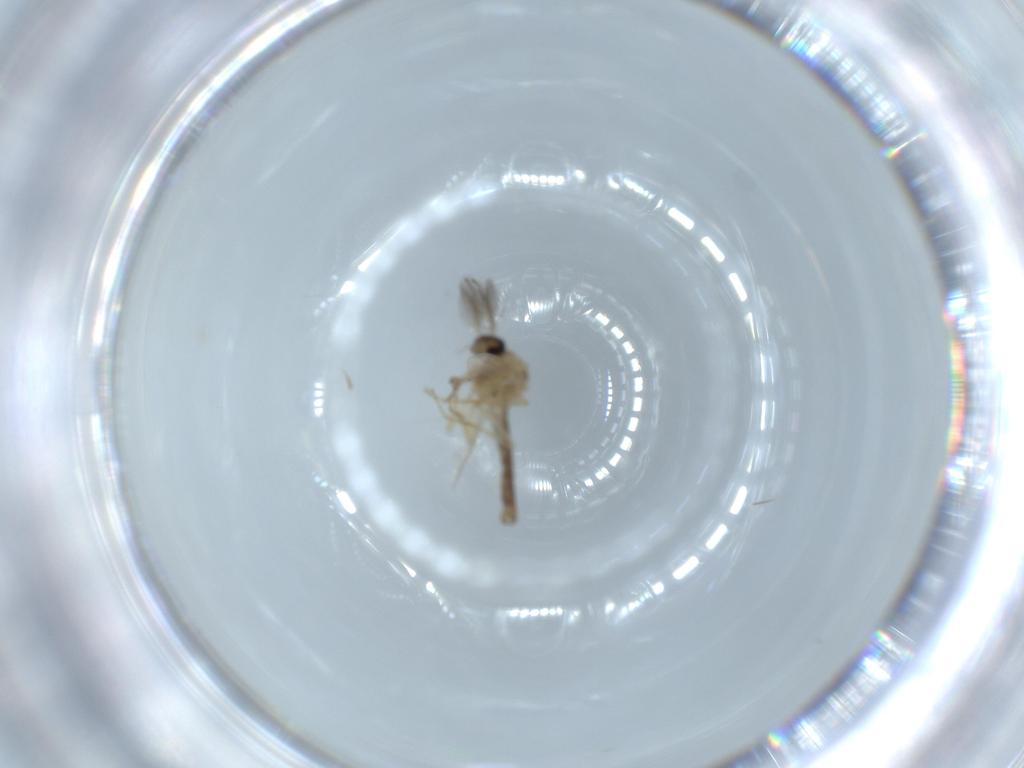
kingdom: Animalia
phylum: Arthropoda
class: Insecta
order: Diptera
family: Ceratopogonidae
